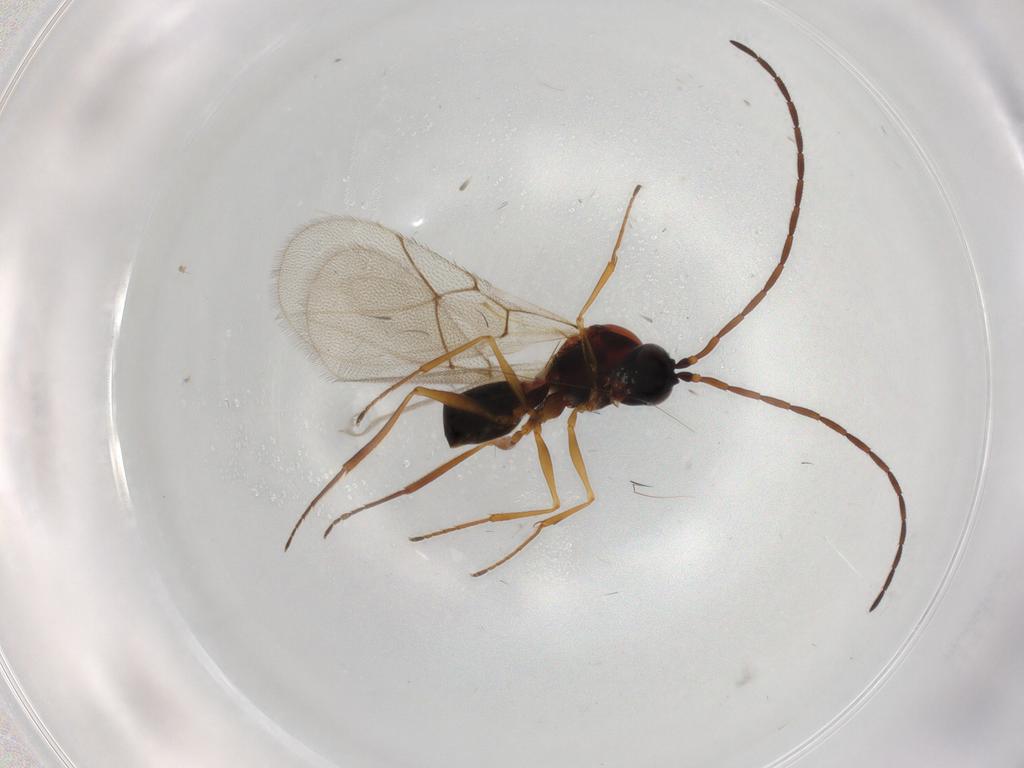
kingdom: Animalia
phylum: Arthropoda
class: Insecta
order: Hymenoptera
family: Figitidae
